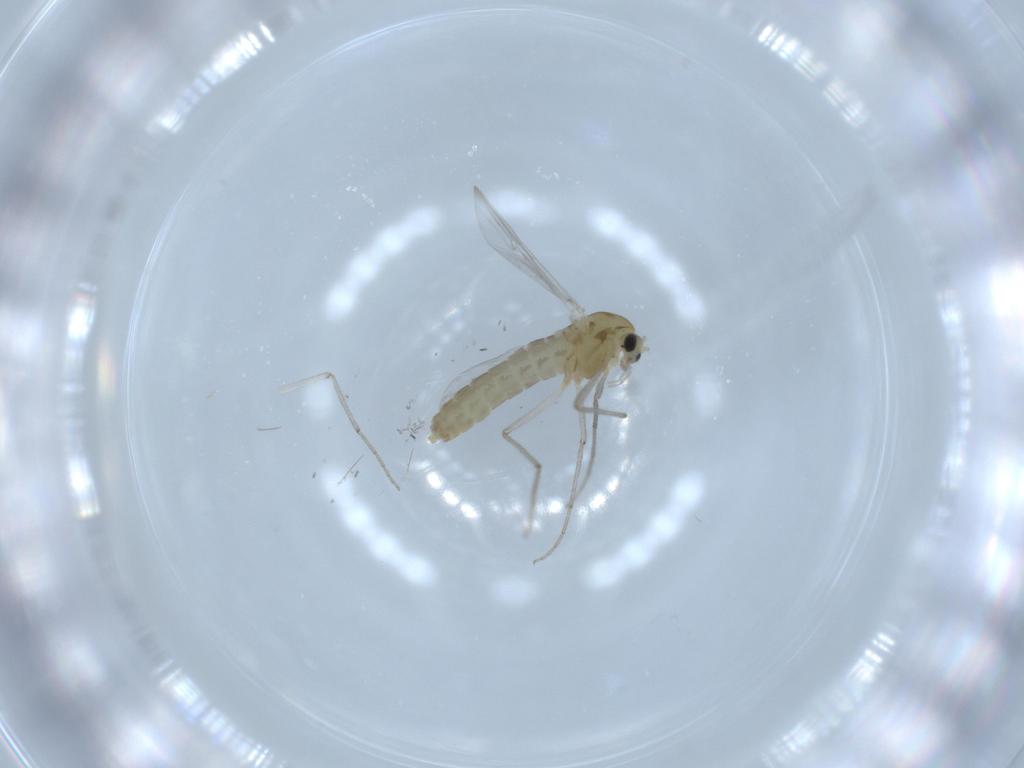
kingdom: Animalia
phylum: Arthropoda
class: Insecta
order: Diptera
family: Chironomidae
